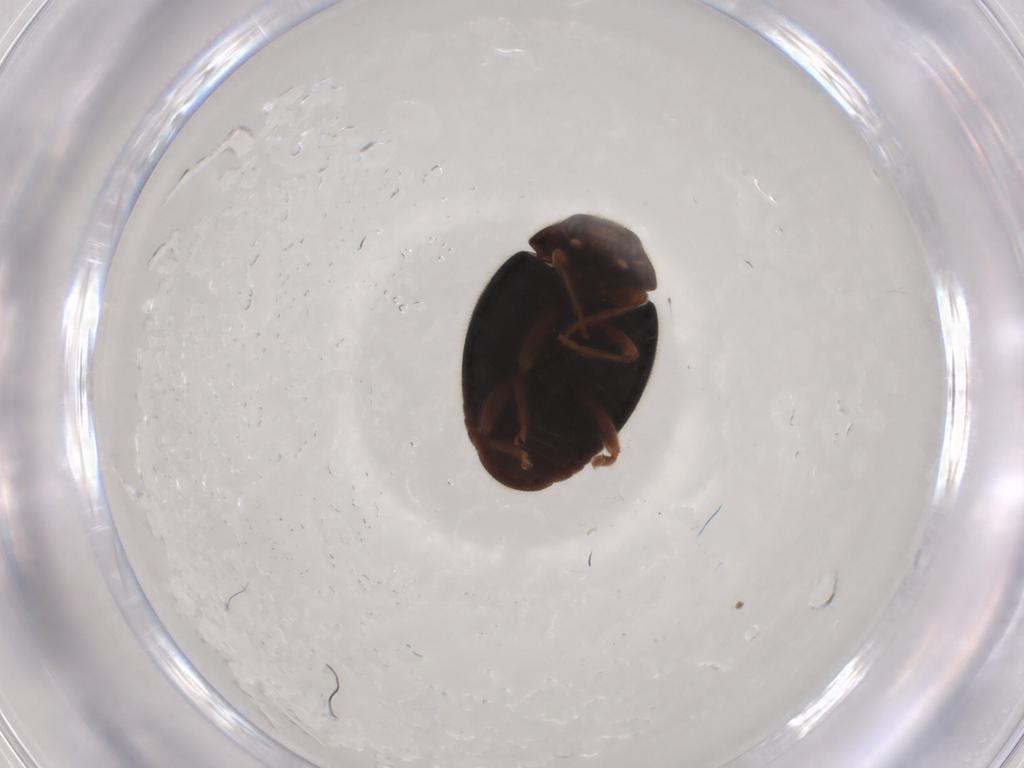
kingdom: Animalia
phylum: Arthropoda
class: Insecta
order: Coleoptera
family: Coccinellidae
